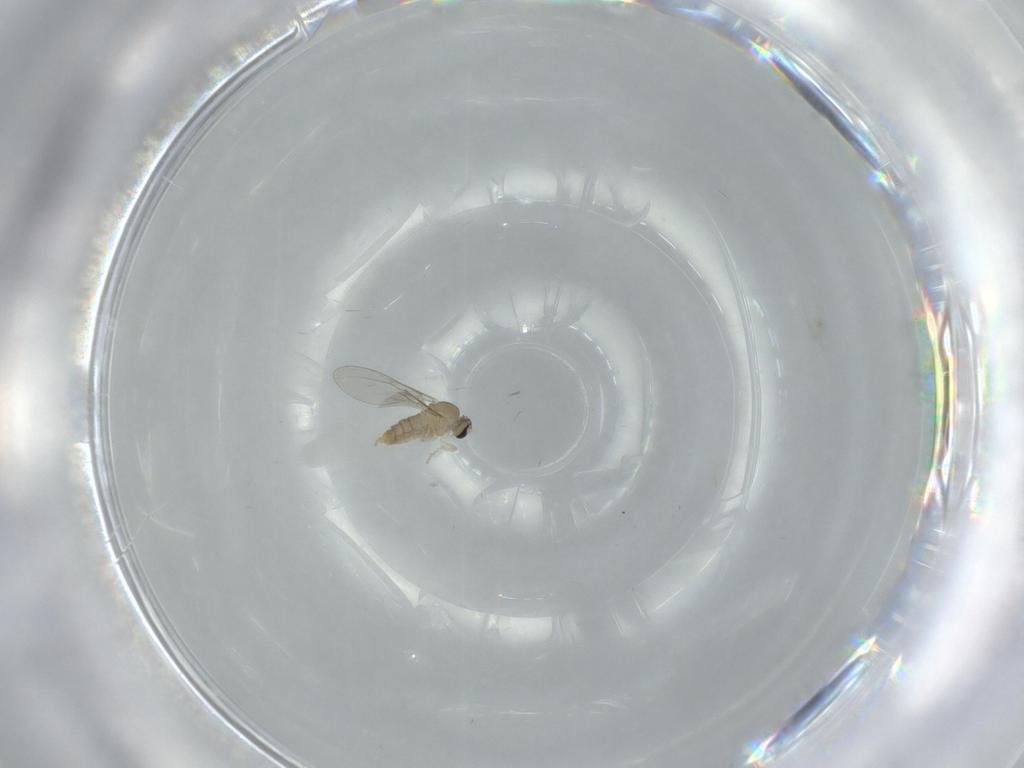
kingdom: Animalia
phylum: Arthropoda
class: Insecta
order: Diptera
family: Cecidomyiidae
